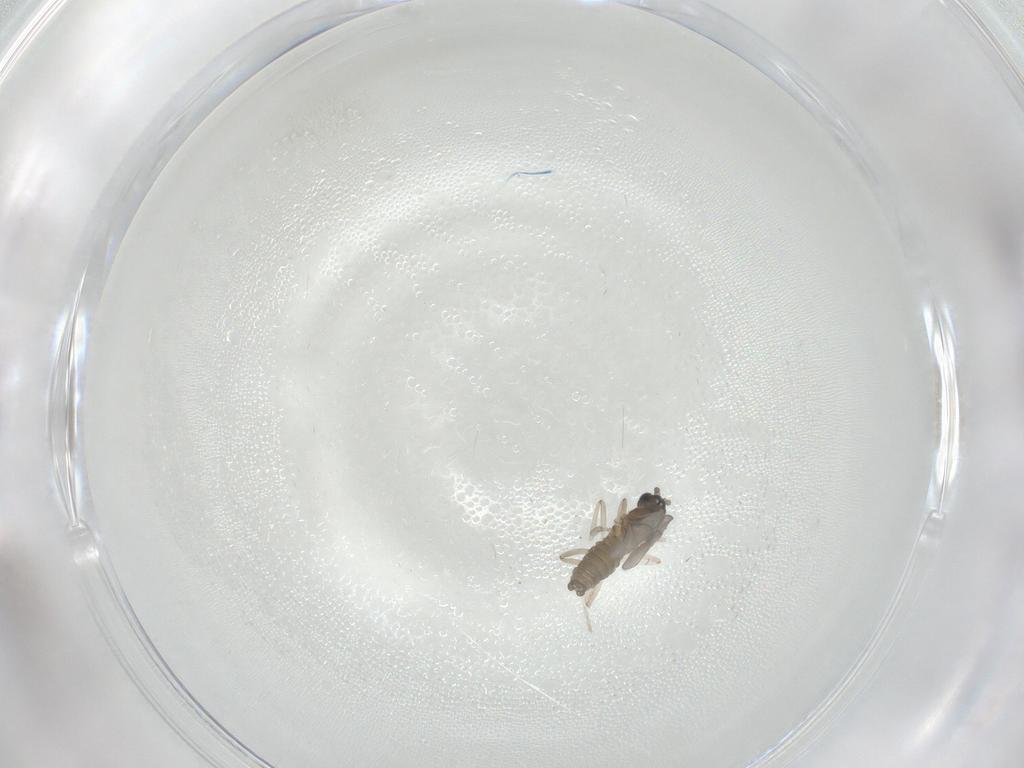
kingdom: Animalia
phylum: Arthropoda
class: Insecta
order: Diptera
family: Cecidomyiidae
